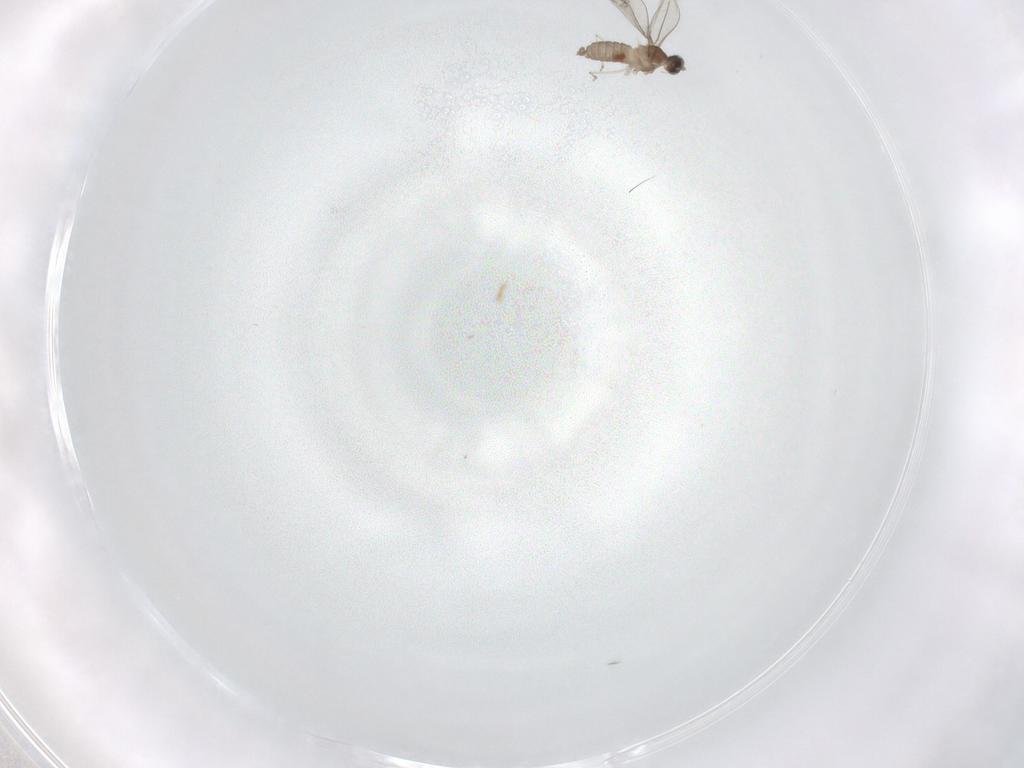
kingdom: Animalia
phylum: Arthropoda
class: Insecta
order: Diptera
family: Cecidomyiidae
